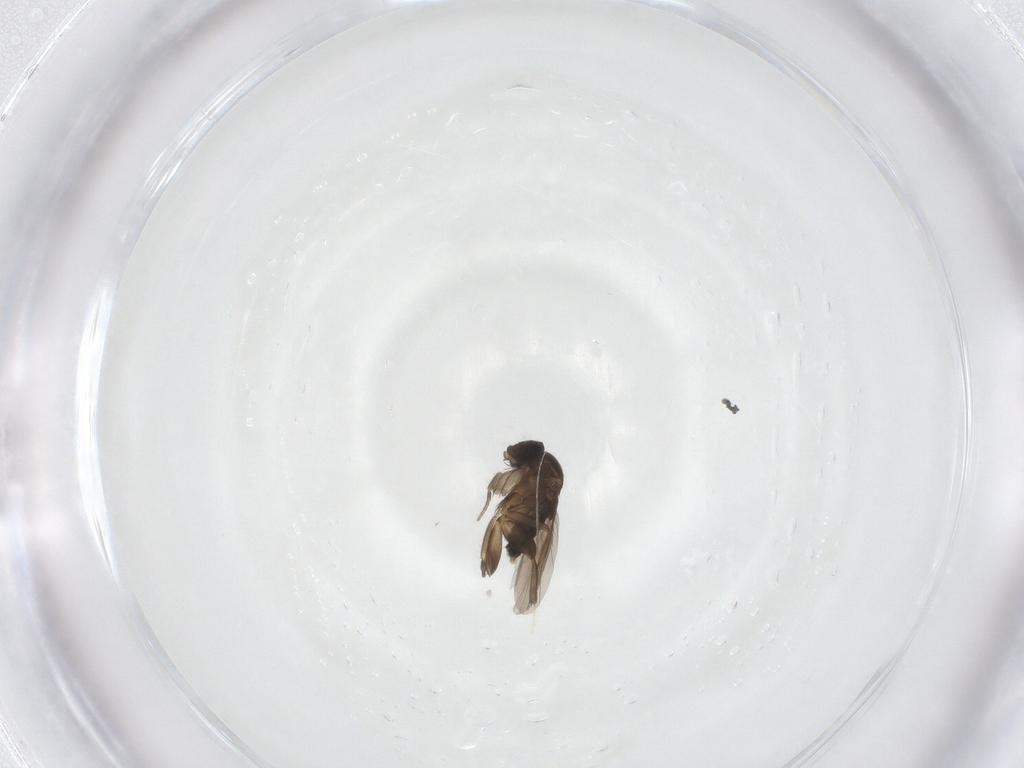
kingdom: Animalia
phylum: Arthropoda
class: Insecta
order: Diptera
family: Phoridae
